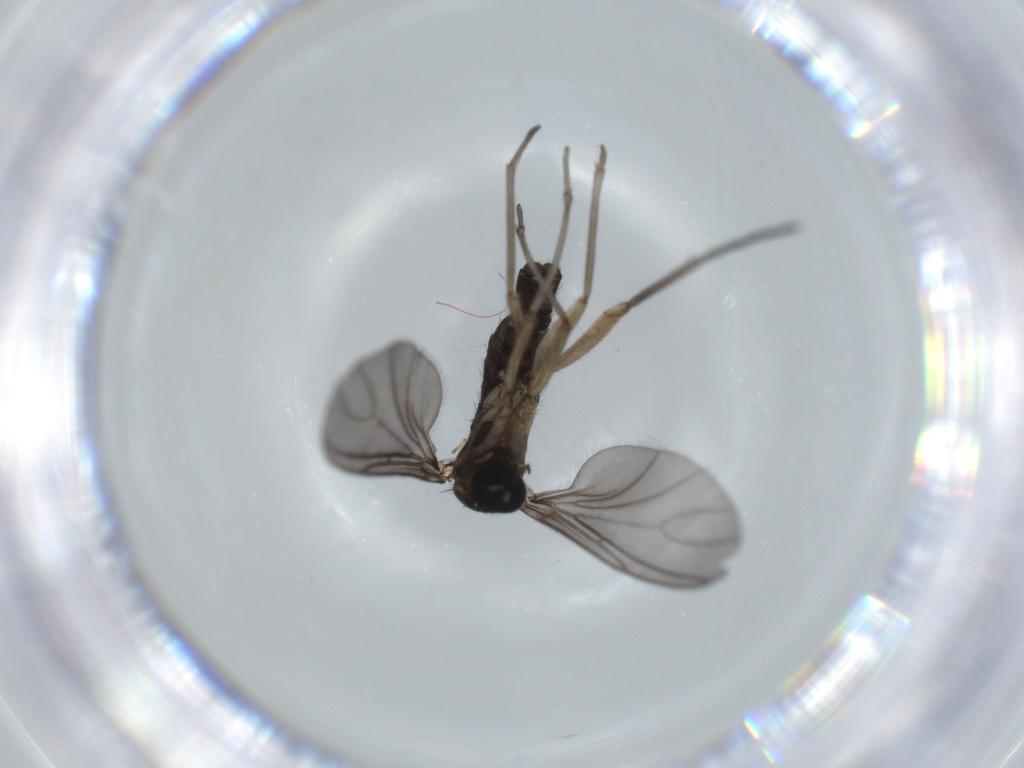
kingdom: Animalia
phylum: Arthropoda
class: Insecta
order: Diptera
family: Sciaridae
